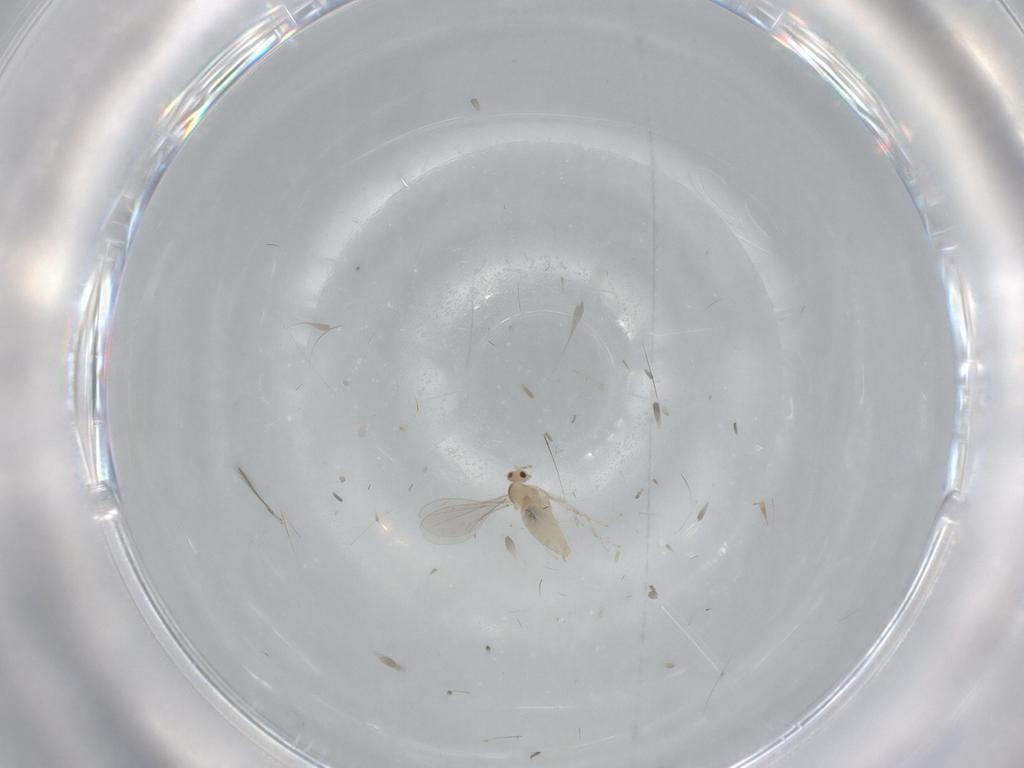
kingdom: Animalia
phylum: Arthropoda
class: Insecta
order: Diptera
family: Cecidomyiidae
